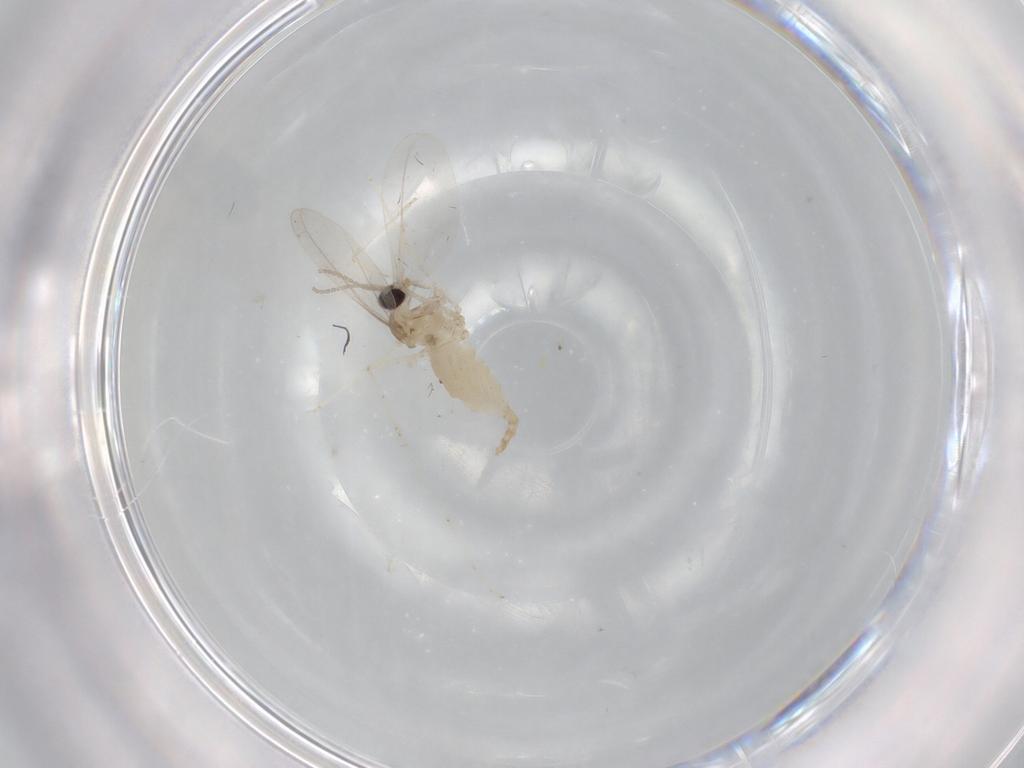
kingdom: Animalia
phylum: Arthropoda
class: Insecta
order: Diptera
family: Cecidomyiidae
